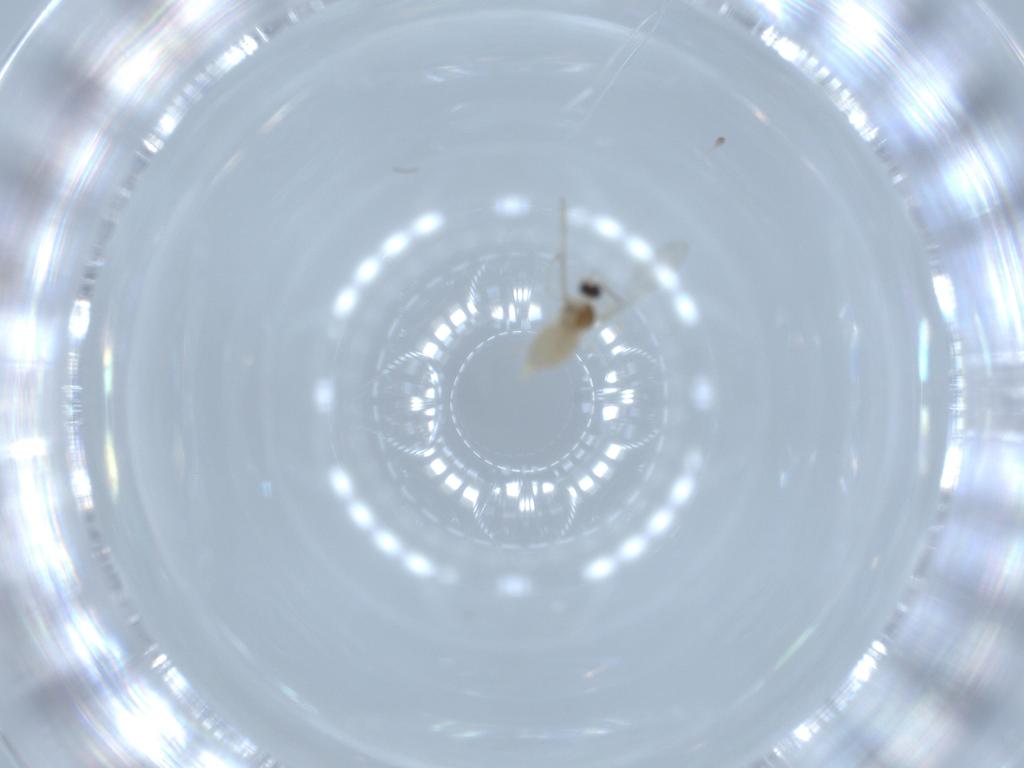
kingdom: Animalia
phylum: Arthropoda
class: Insecta
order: Diptera
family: Cecidomyiidae
